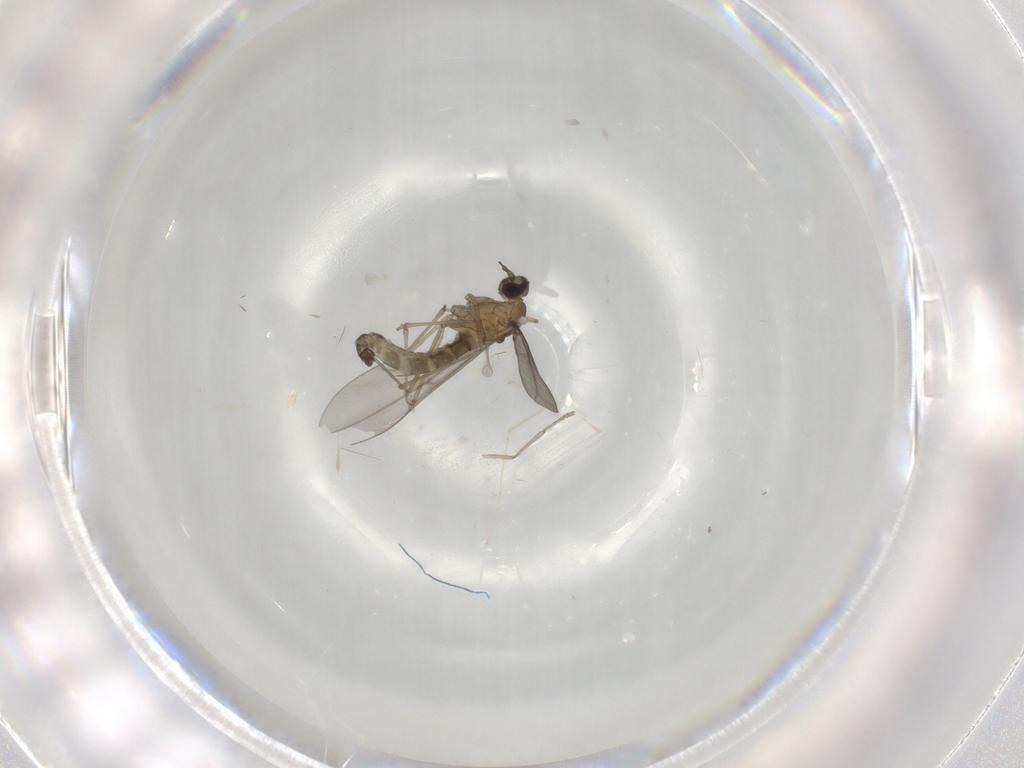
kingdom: Animalia
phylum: Arthropoda
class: Insecta
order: Diptera
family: Cecidomyiidae
